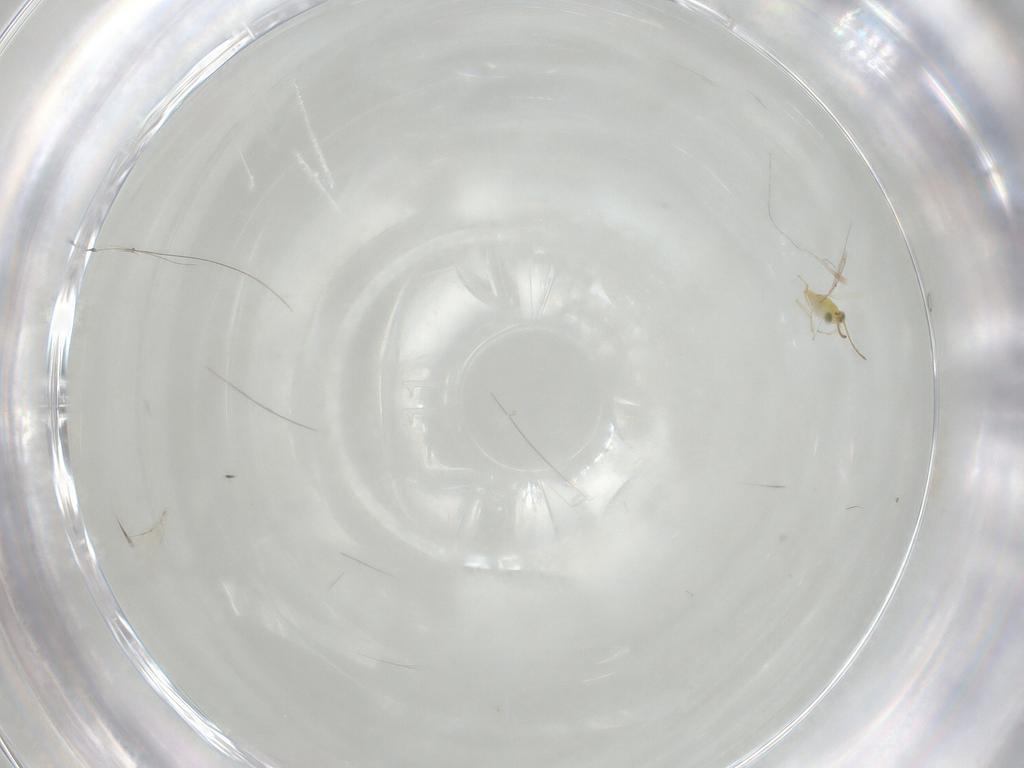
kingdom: Animalia
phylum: Arthropoda
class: Insecta
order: Hymenoptera
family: Aphelinidae
